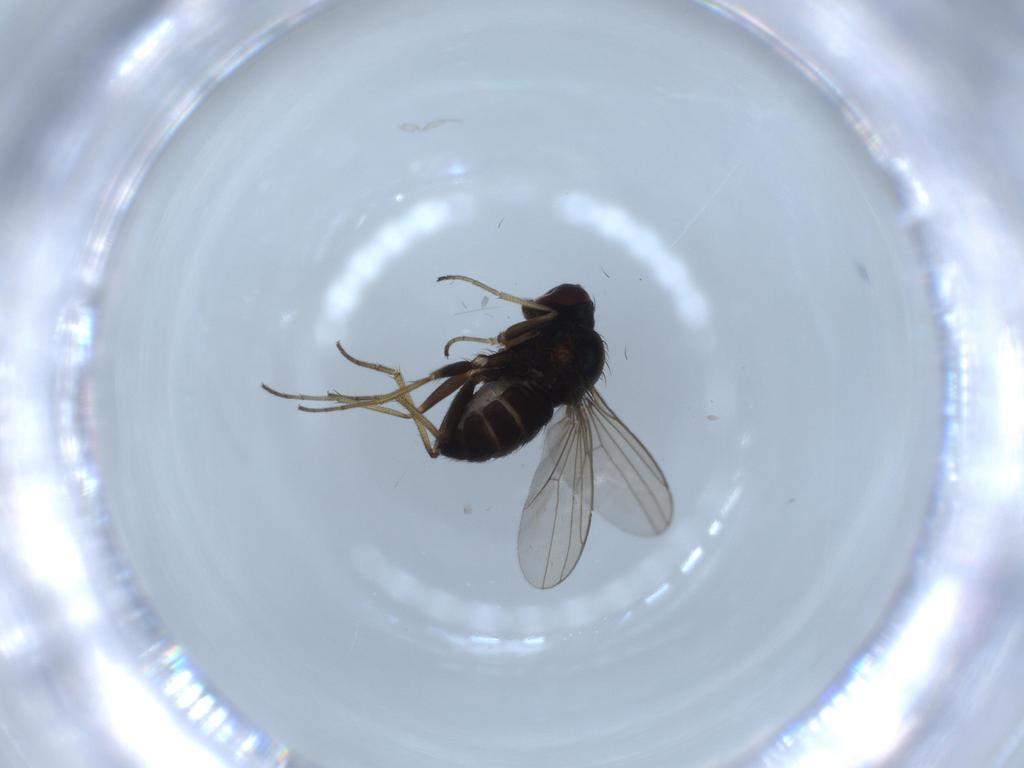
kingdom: Animalia
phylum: Arthropoda
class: Insecta
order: Diptera
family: Dolichopodidae
